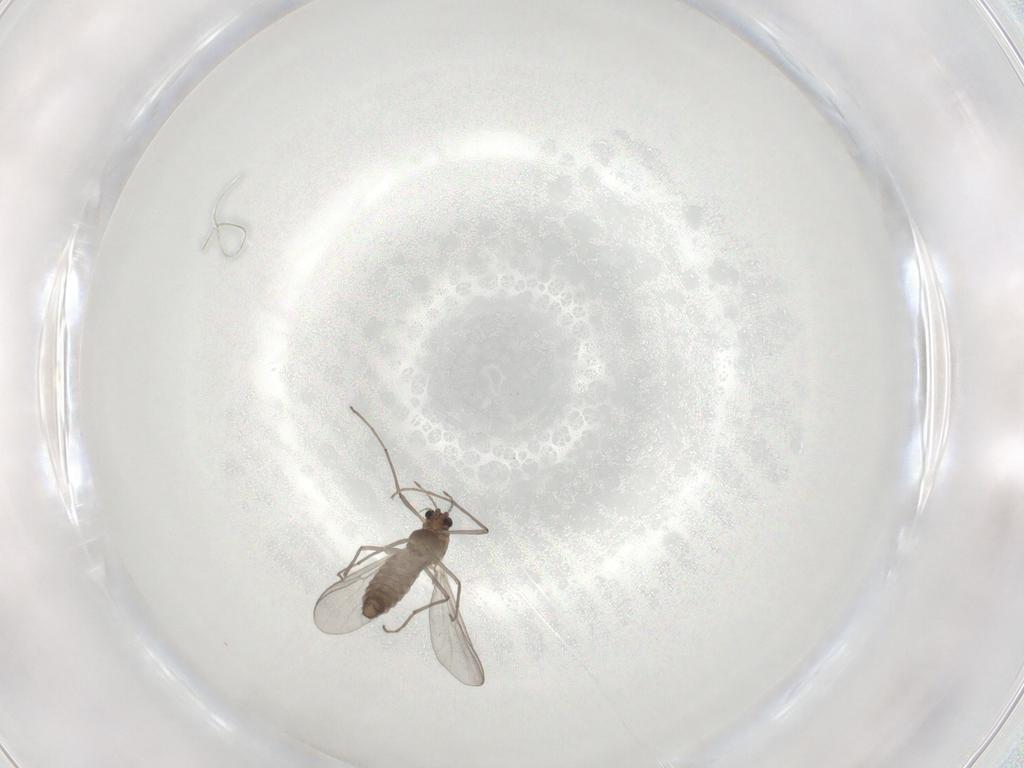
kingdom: Animalia
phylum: Arthropoda
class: Insecta
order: Diptera
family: Chironomidae
